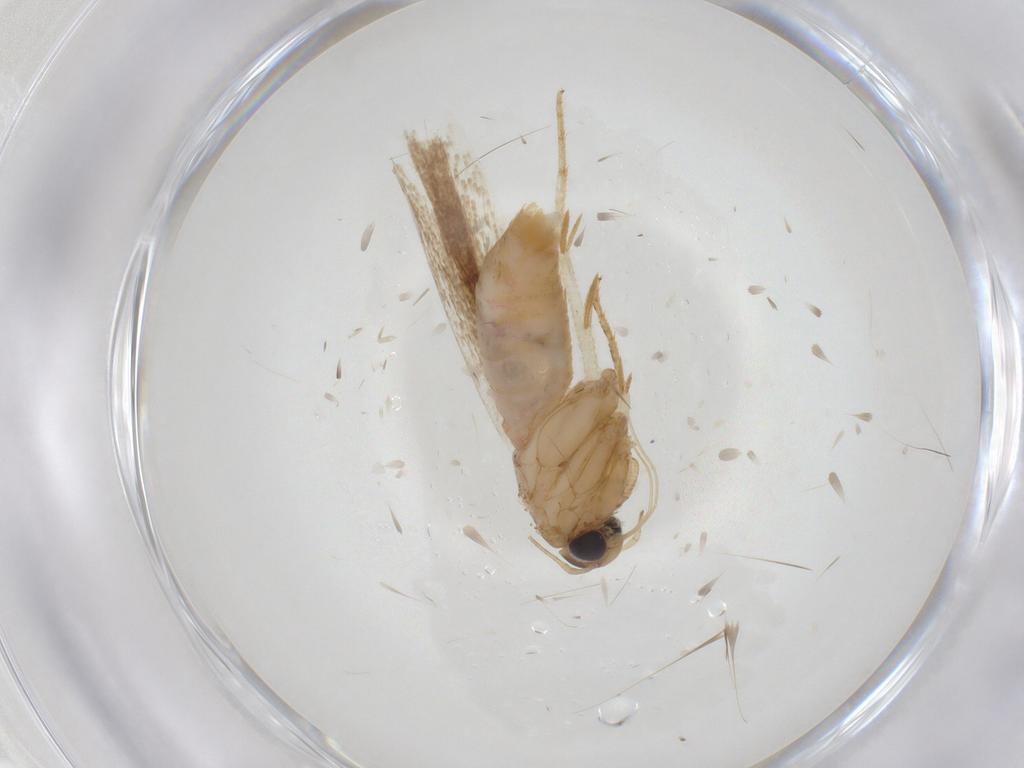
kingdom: Animalia
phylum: Arthropoda
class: Insecta
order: Lepidoptera
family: Gelechiidae
